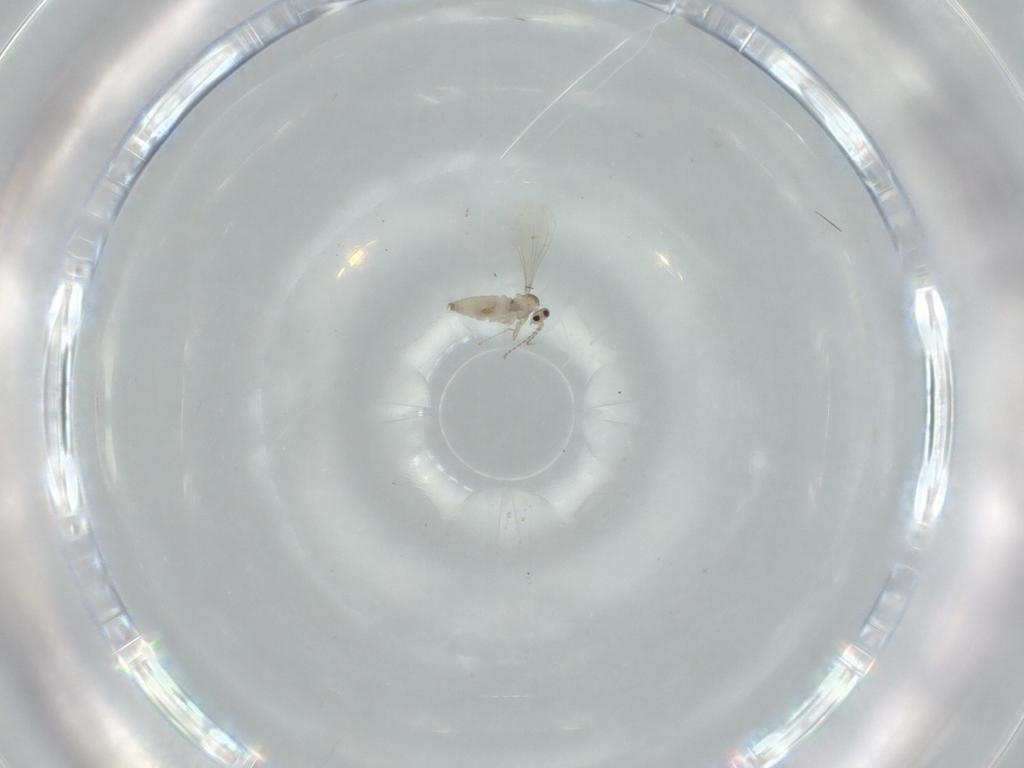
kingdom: Animalia
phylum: Arthropoda
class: Insecta
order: Diptera
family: Cecidomyiidae
